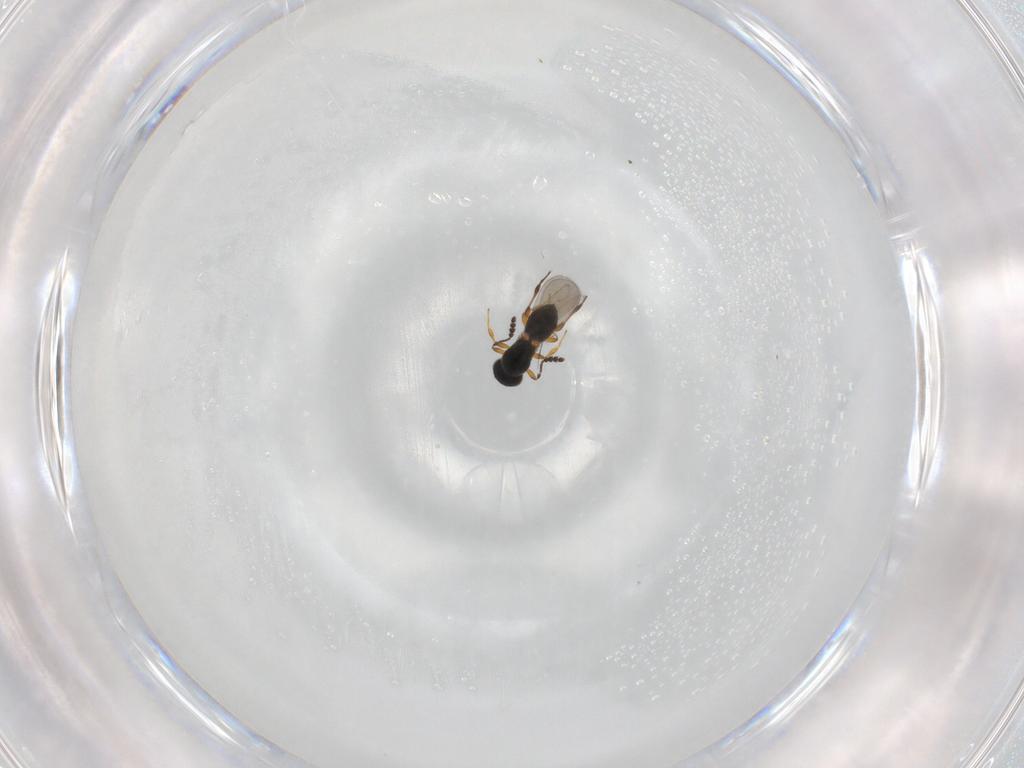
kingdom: Animalia
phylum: Arthropoda
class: Insecta
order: Hymenoptera
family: Platygastridae
